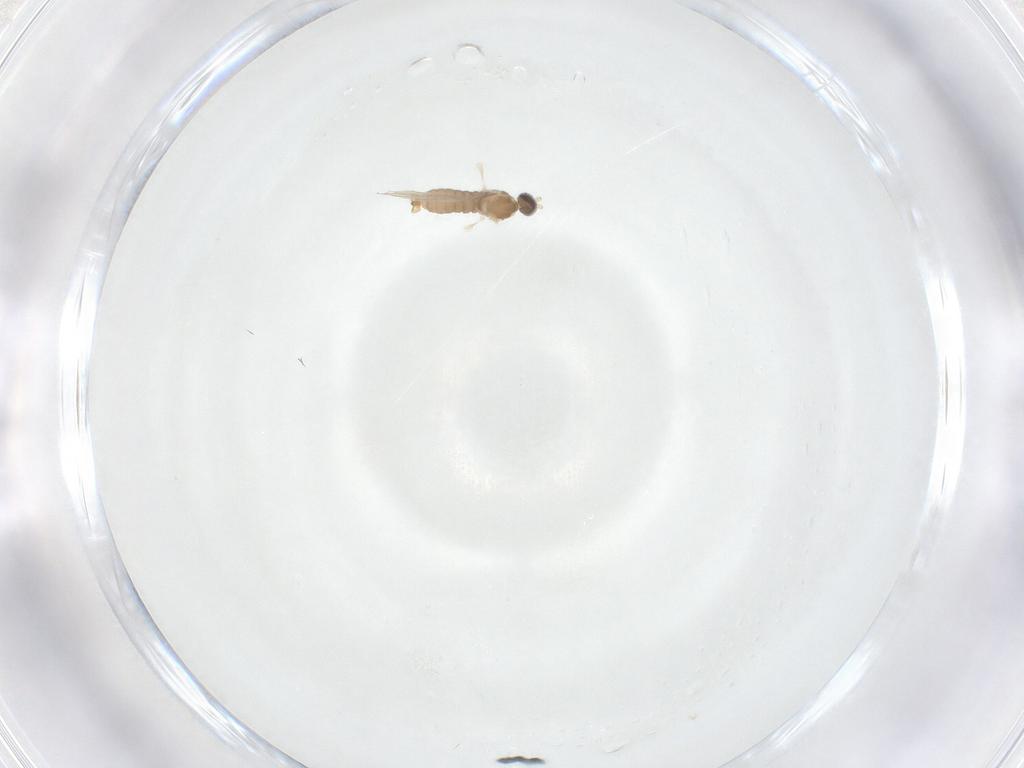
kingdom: Animalia
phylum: Arthropoda
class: Insecta
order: Diptera
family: Cecidomyiidae
